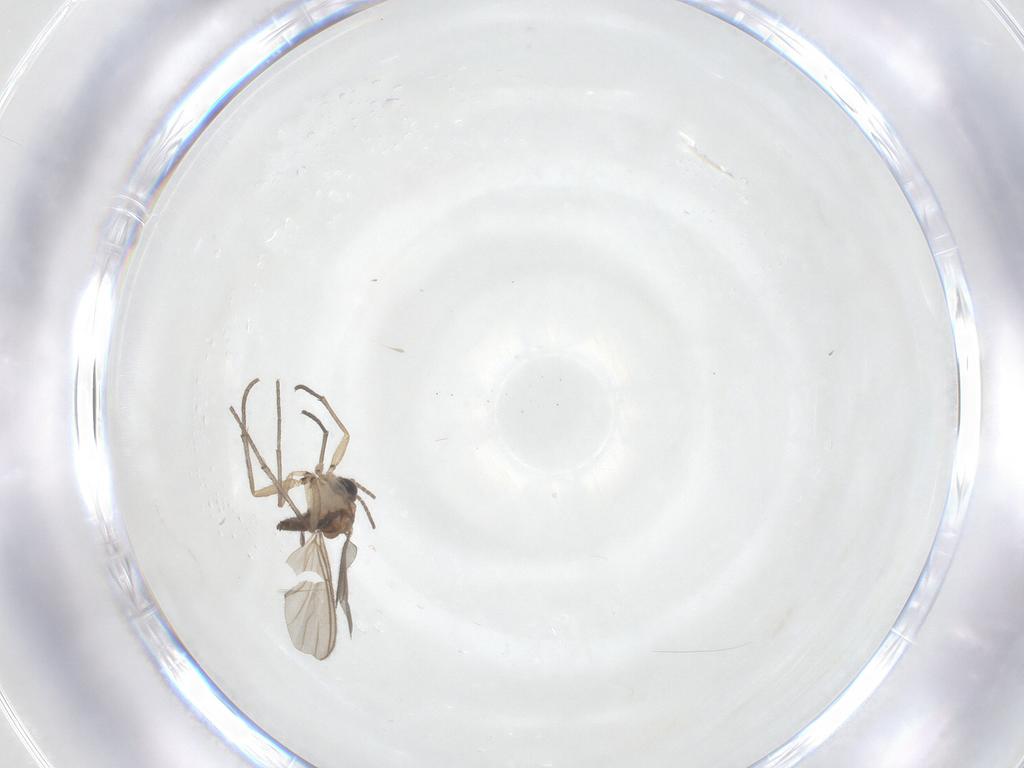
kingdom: Animalia
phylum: Arthropoda
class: Insecta
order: Diptera
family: Sciaridae
